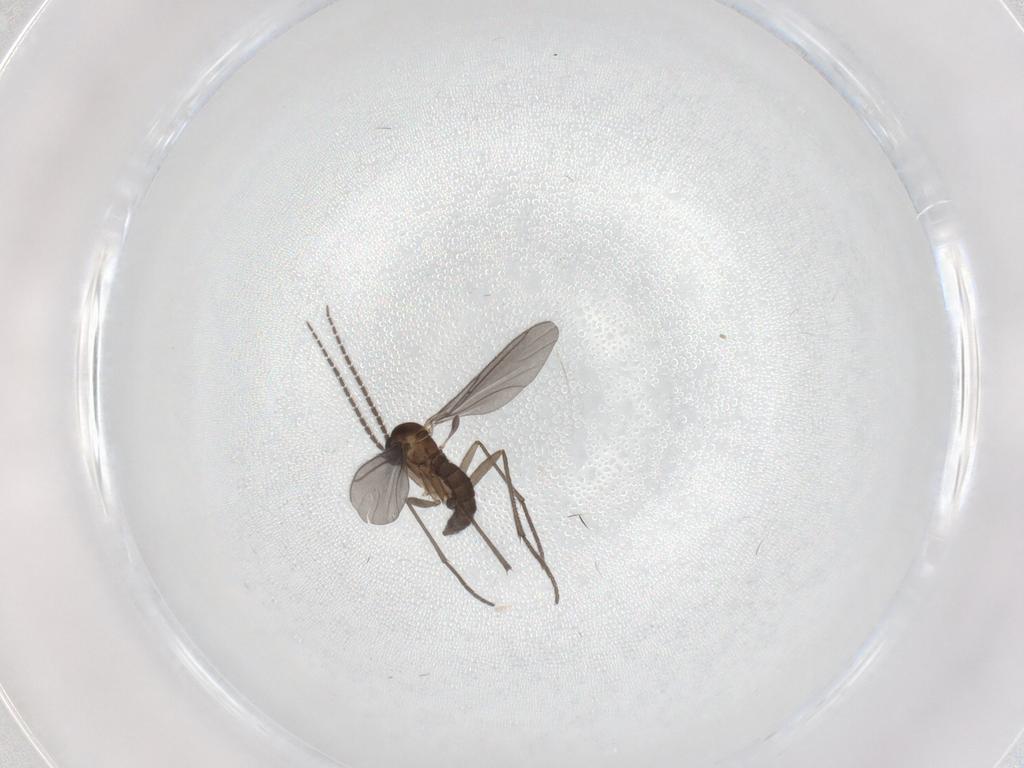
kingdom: Animalia
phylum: Arthropoda
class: Insecta
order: Diptera
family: Sciaridae
